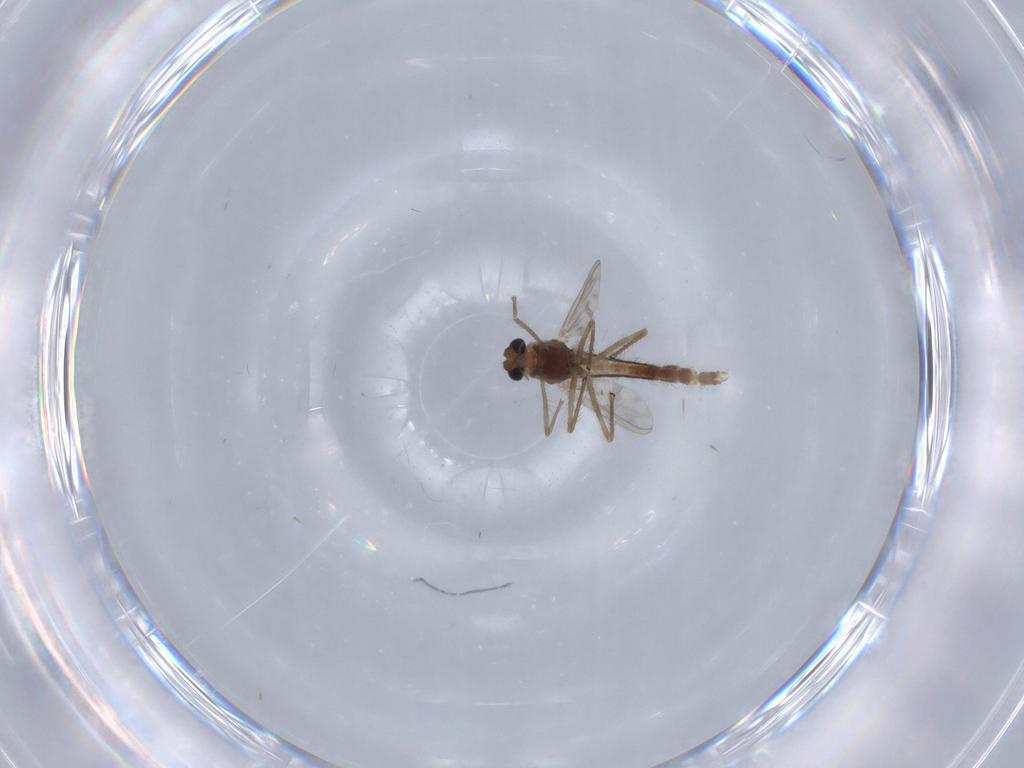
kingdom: Animalia
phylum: Arthropoda
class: Insecta
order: Diptera
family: Chironomidae
